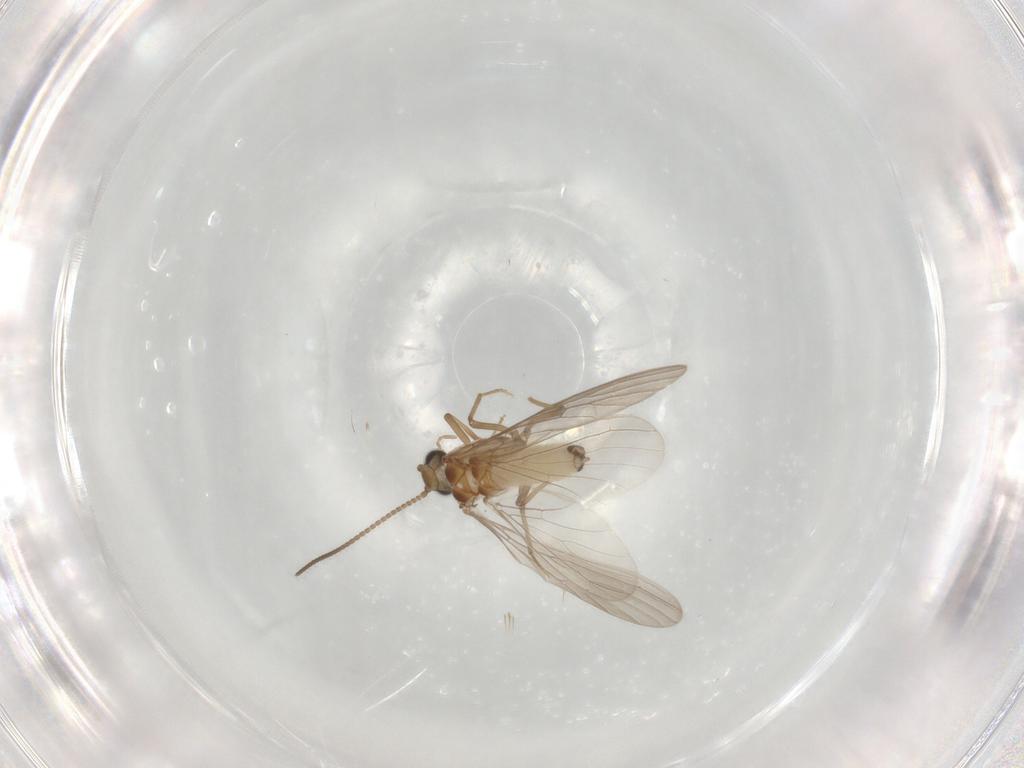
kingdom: Animalia
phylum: Arthropoda
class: Insecta
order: Neuroptera
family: Coniopterygidae
